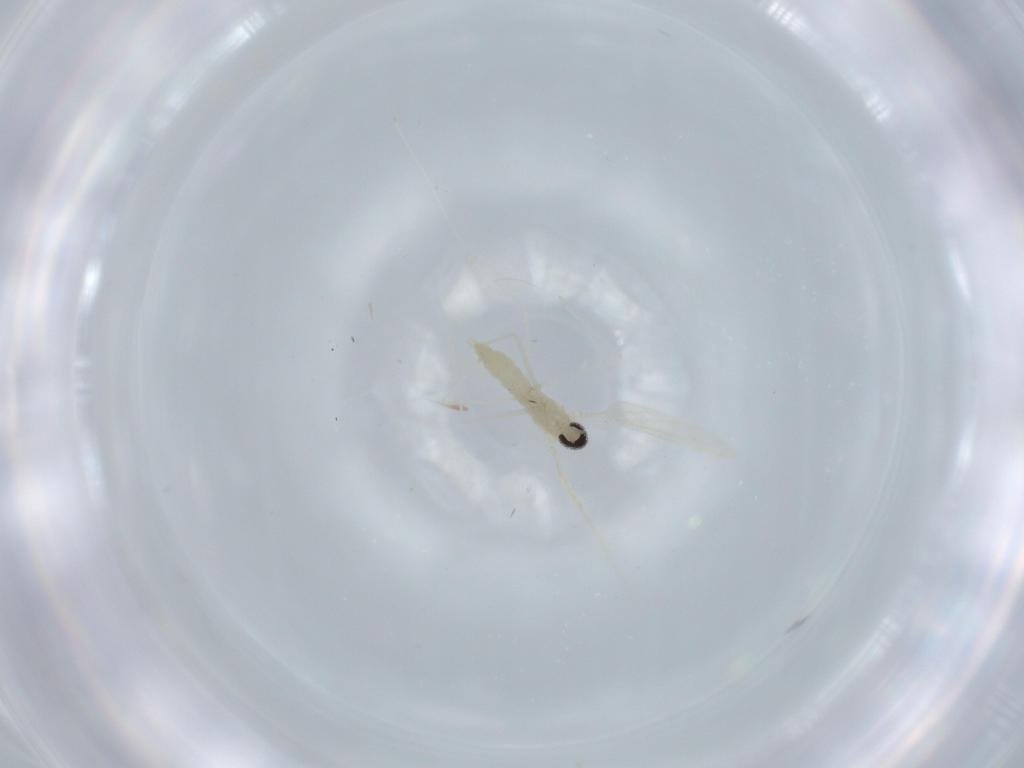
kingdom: Animalia
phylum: Arthropoda
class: Insecta
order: Diptera
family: Cecidomyiidae
